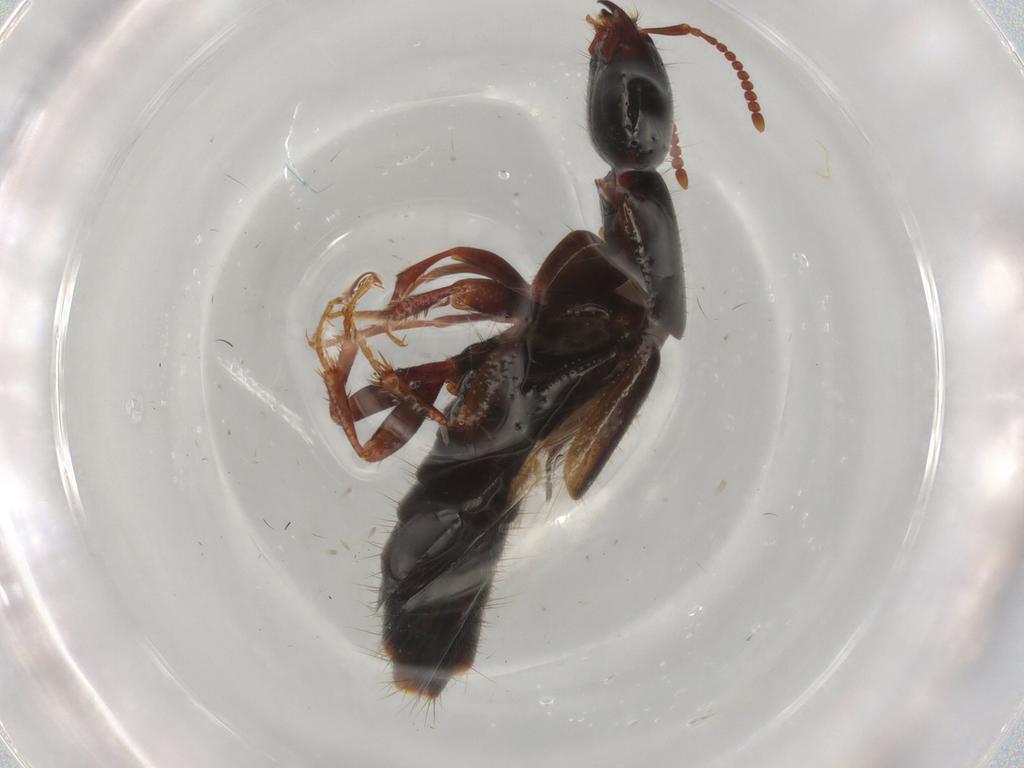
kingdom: Animalia
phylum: Arthropoda
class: Insecta
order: Coleoptera
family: Staphylinidae
